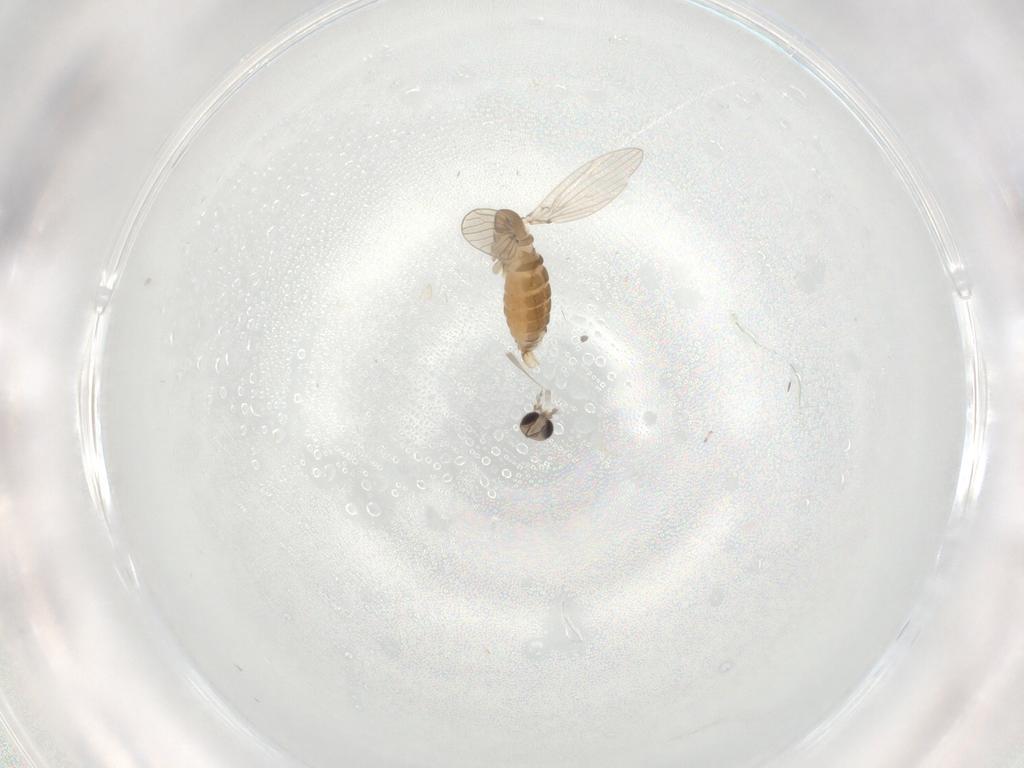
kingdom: Animalia
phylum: Arthropoda
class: Insecta
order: Diptera
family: Psychodidae
